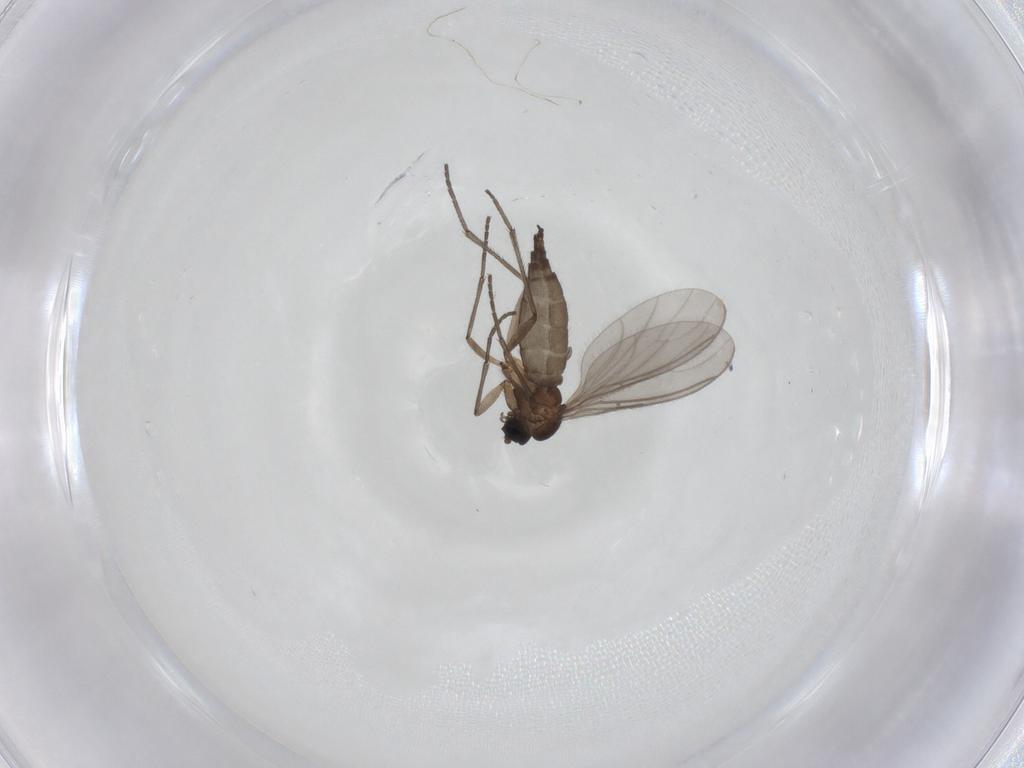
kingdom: Animalia
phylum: Arthropoda
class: Insecta
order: Diptera
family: Sciaridae
